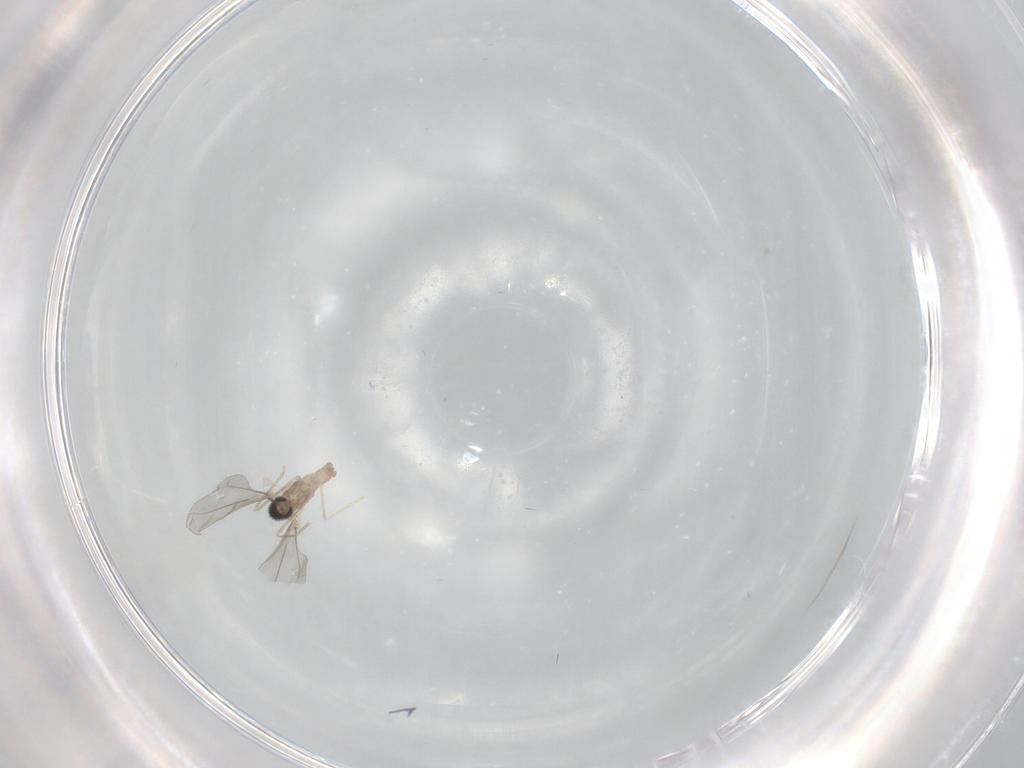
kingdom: Animalia
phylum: Arthropoda
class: Insecta
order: Diptera
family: Cecidomyiidae
